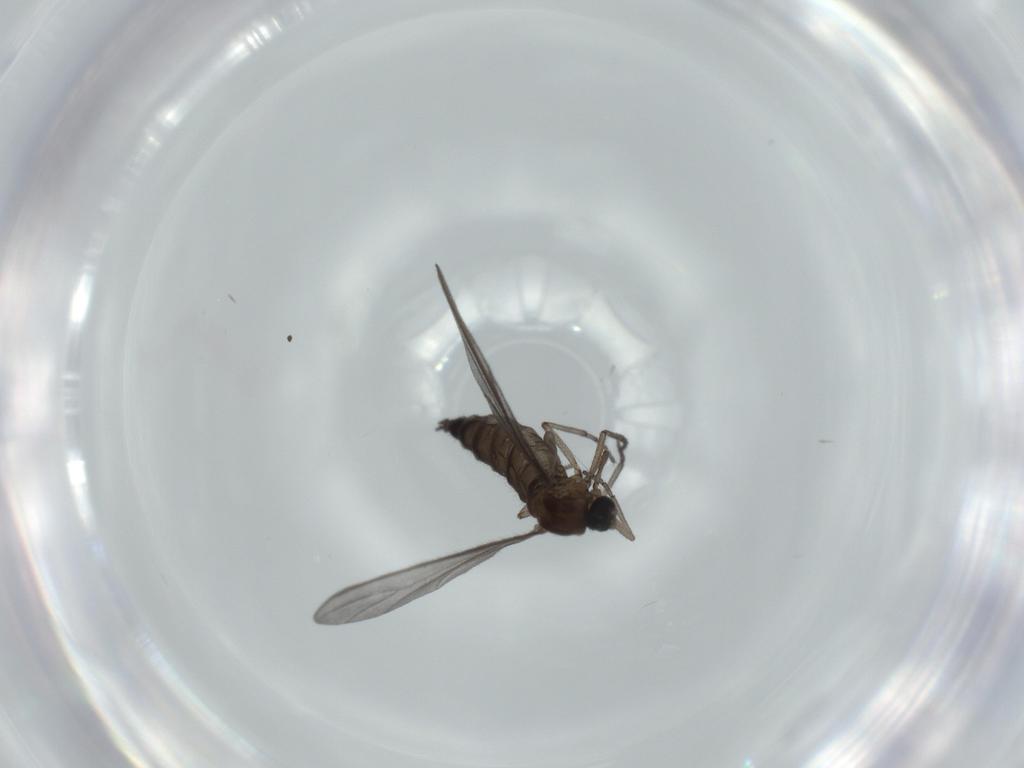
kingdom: Animalia
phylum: Arthropoda
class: Insecta
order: Diptera
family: Sciaridae
